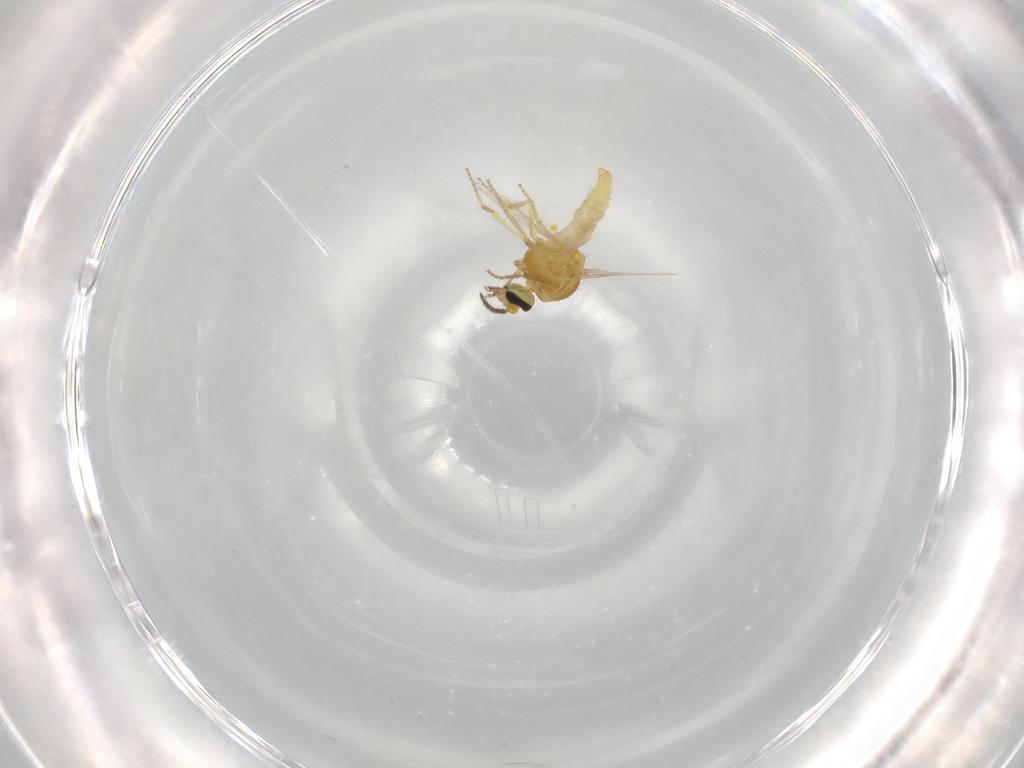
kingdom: Animalia
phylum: Arthropoda
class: Insecta
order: Diptera
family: Ceratopogonidae
